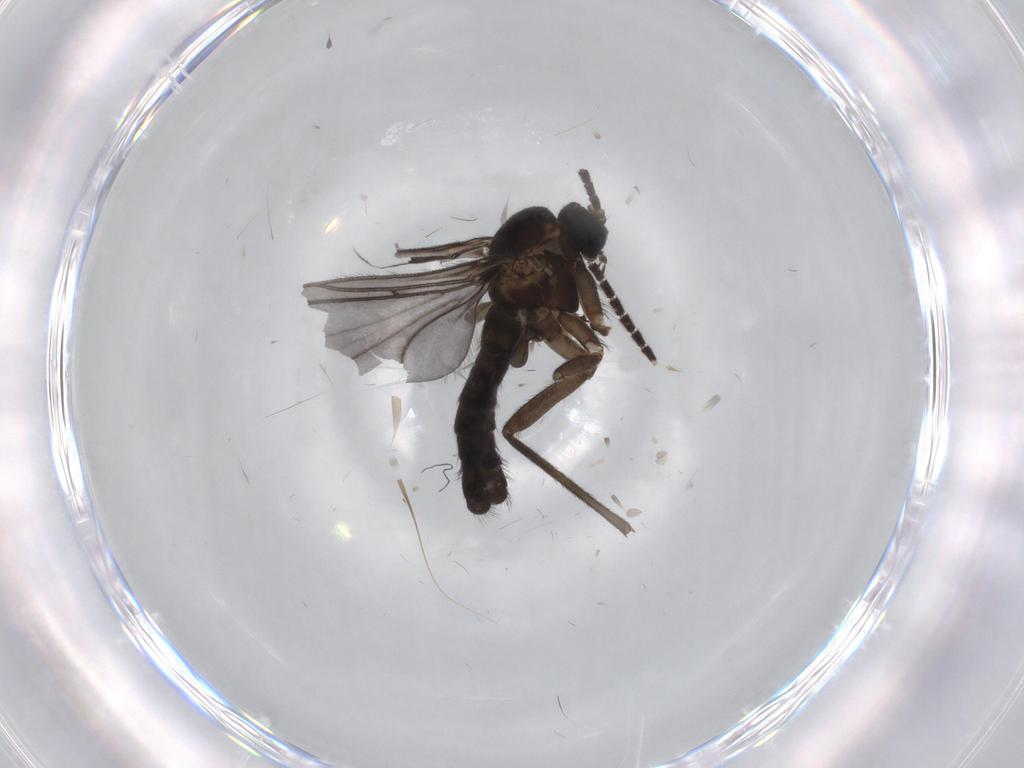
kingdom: Animalia
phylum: Arthropoda
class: Insecta
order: Diptera
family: Sciaridae
